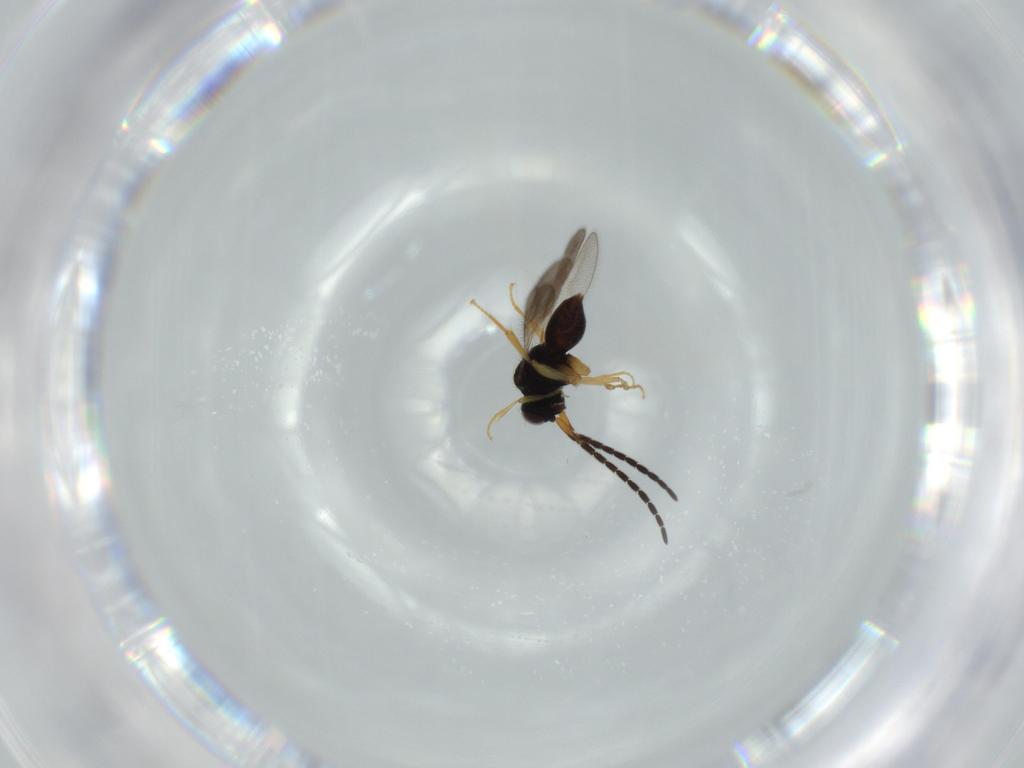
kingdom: Animalia
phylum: Arthropoda
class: Insecta
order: Hymenoptera
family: Ceraphronidae
